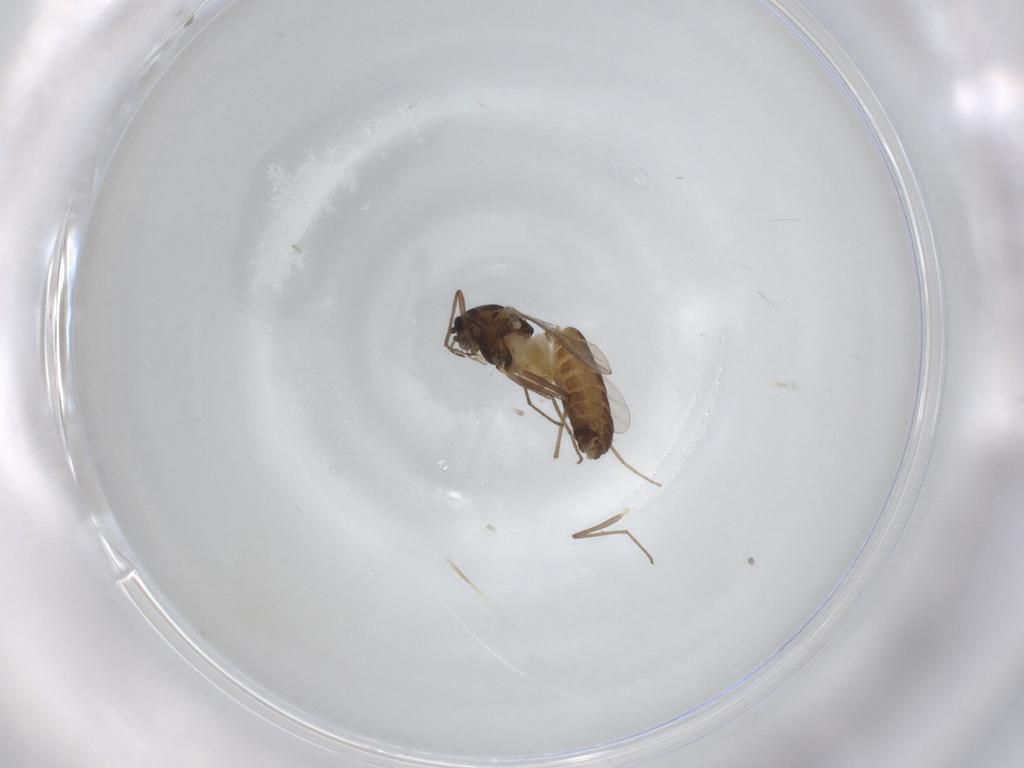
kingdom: Animalia
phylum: Arthropoda
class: Insecta
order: Diptera
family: Chironomidae
